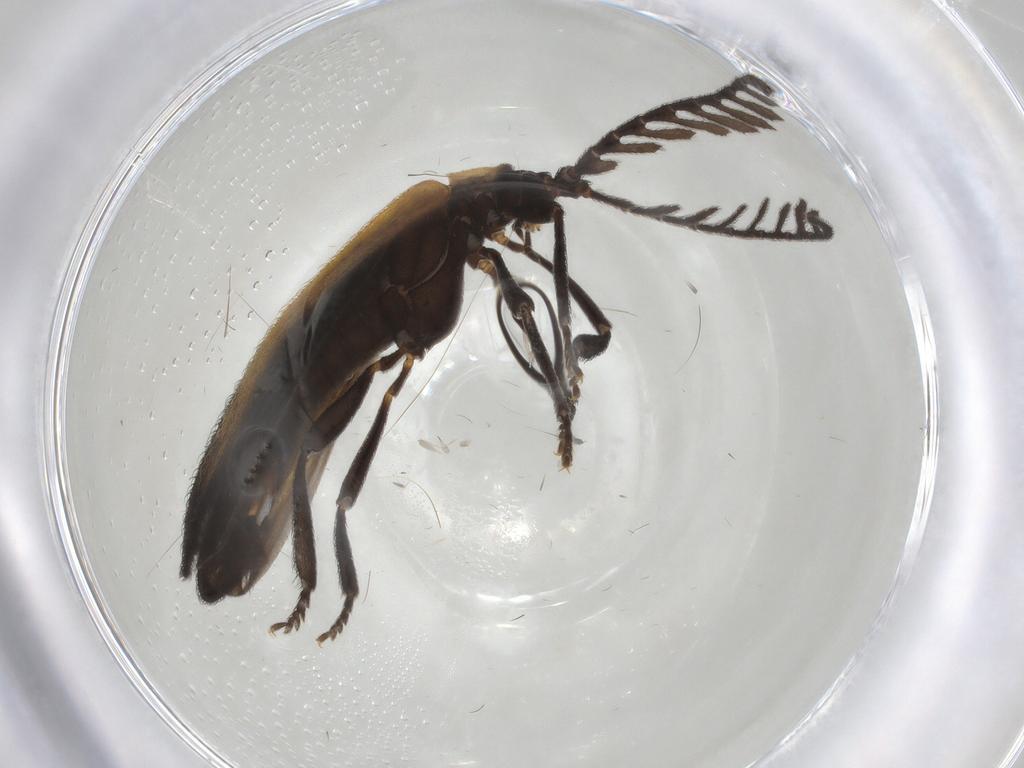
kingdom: Animalia
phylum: Arthropoda
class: Insecta
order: Coleoptera
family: Lycidae
